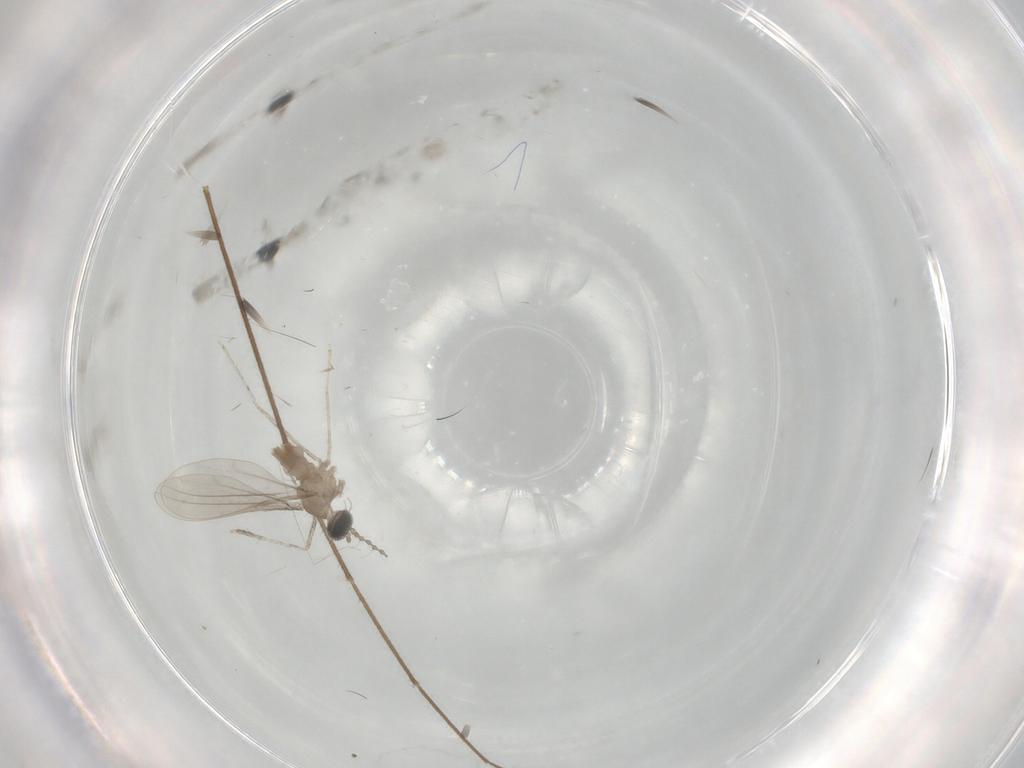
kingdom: Animalia
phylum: Arthropoda
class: Insecta
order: Diptera
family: Cecidomyiidae
